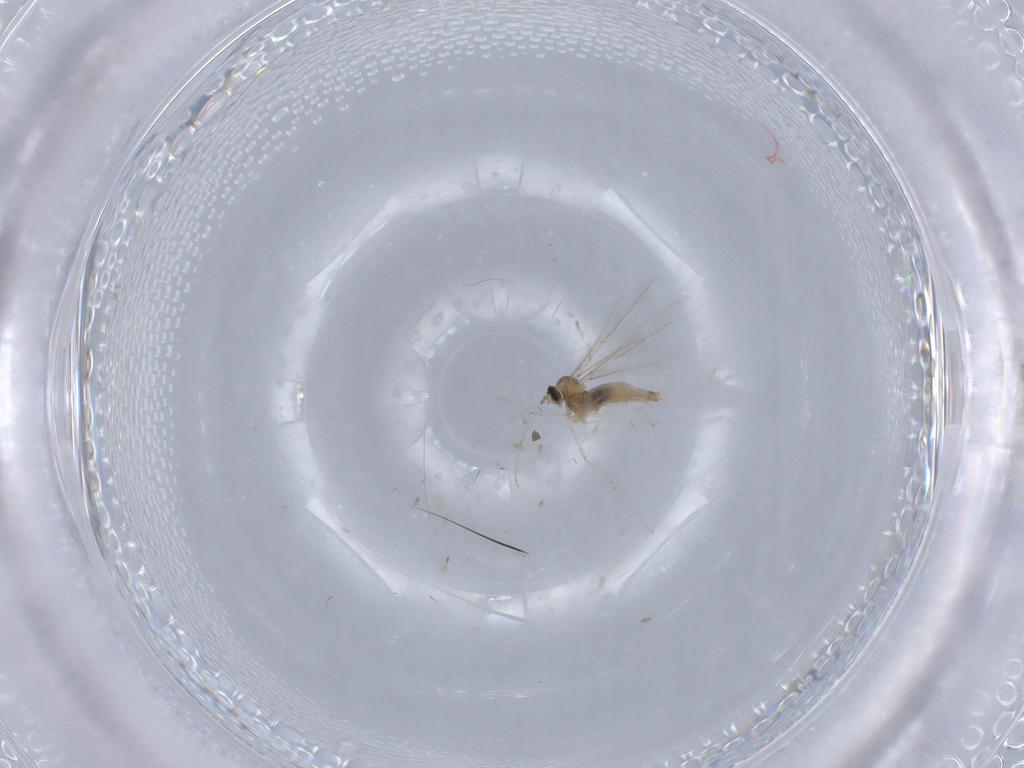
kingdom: Animalia
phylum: Arthropoda
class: Insecta
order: Diptera
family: Cecidomyiidae
